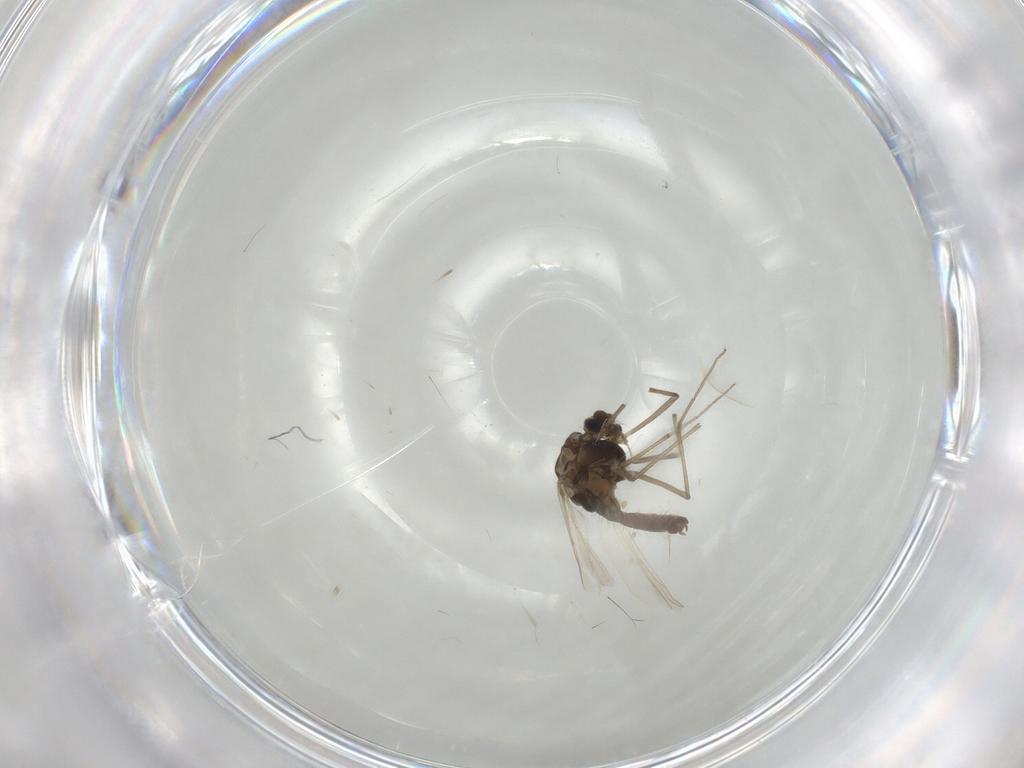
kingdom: Animalia
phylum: Arthropoda
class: Insecta
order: Diptera
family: Chironomidae
